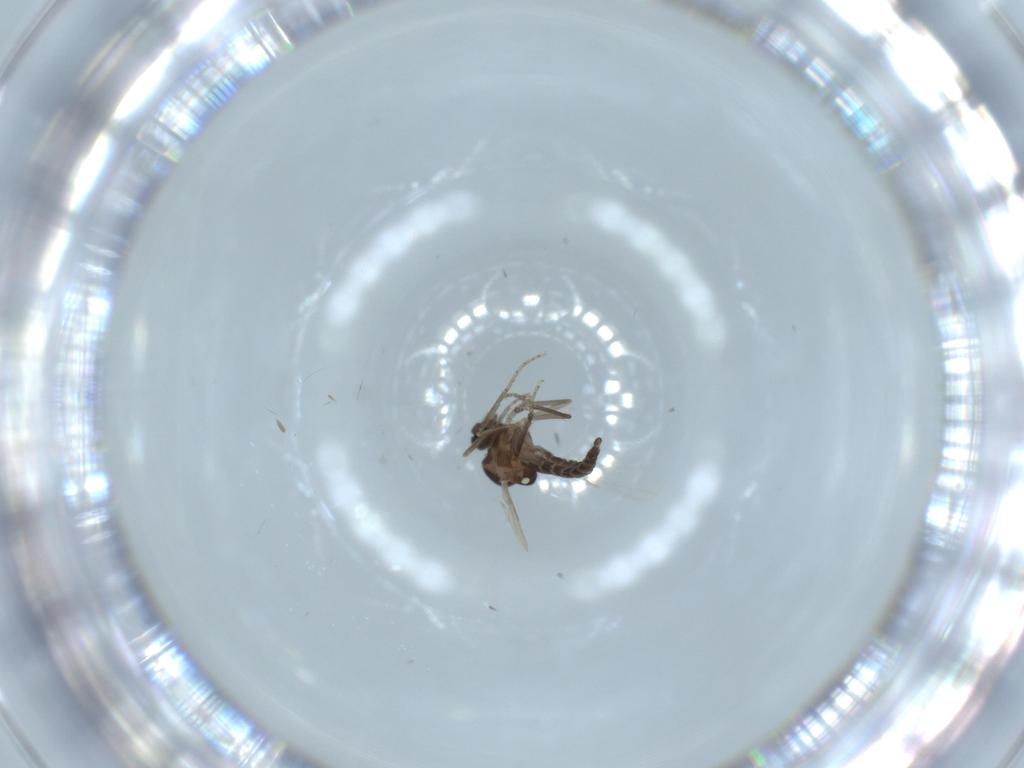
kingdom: Animalia
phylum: Arthropoda
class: Insecta
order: Diptera
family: Ceratopogonidae
